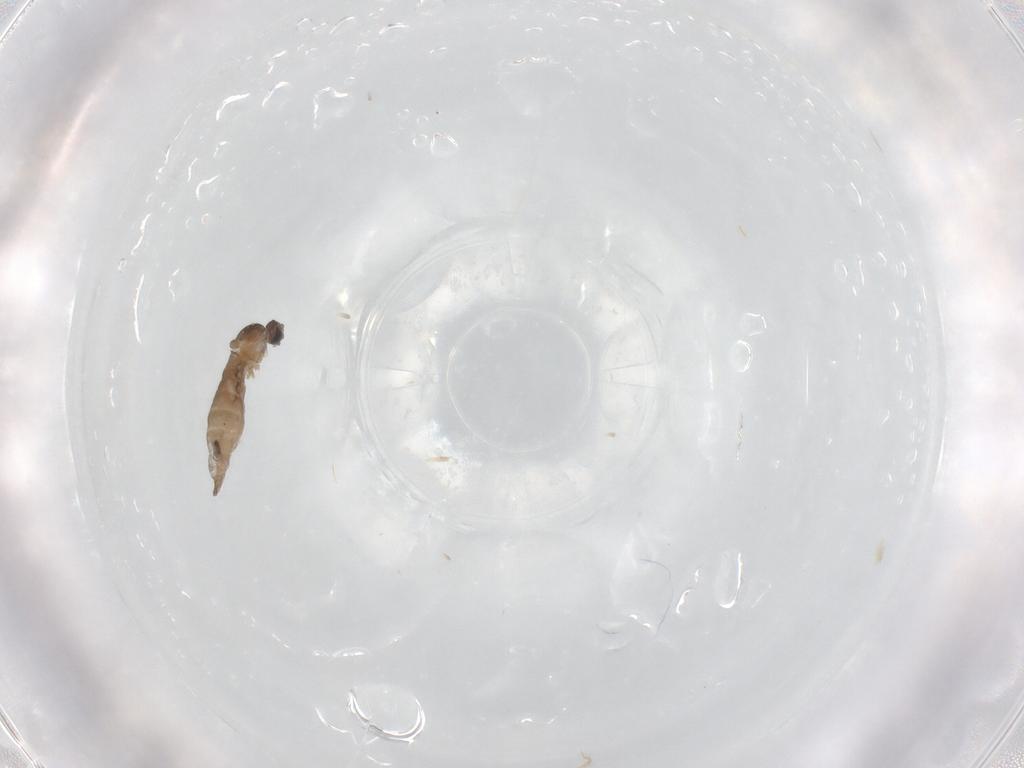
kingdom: Animalia
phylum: Arthropoda
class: Insecta
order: Diptera
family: Cecidomyiidae
